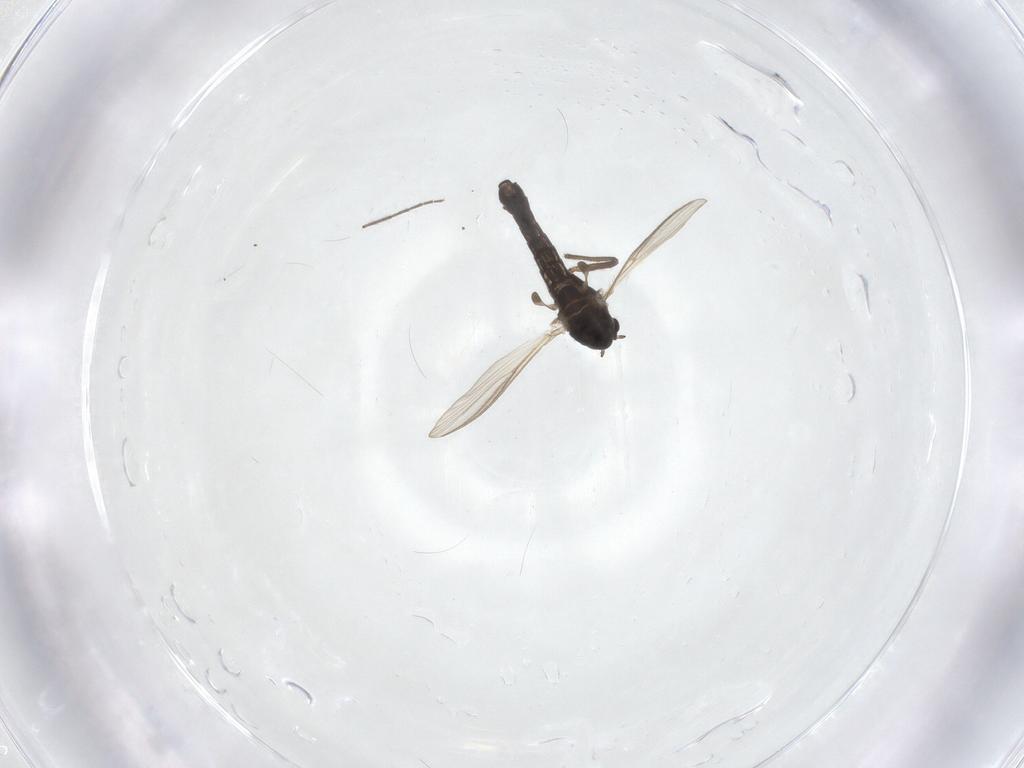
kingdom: Animalia
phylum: Arthropoda
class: Insecta
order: Diptera
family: Chironomidae
